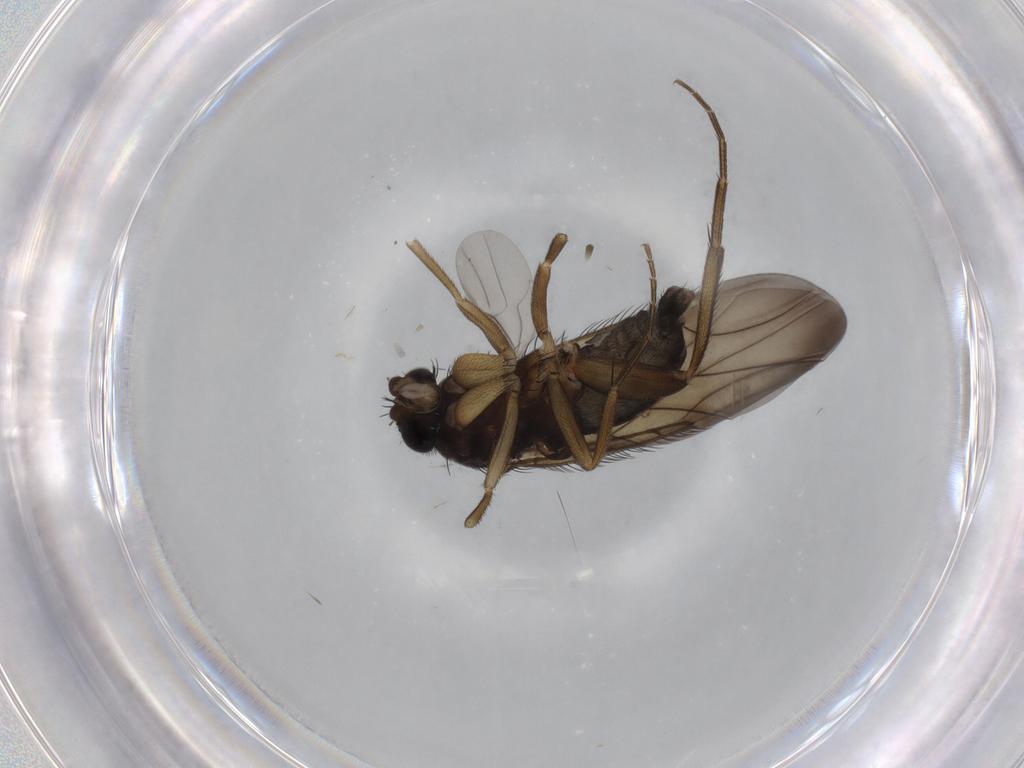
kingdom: Animalia
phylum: Arthropoda
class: Insecta
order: Diptera
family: Phoridae
